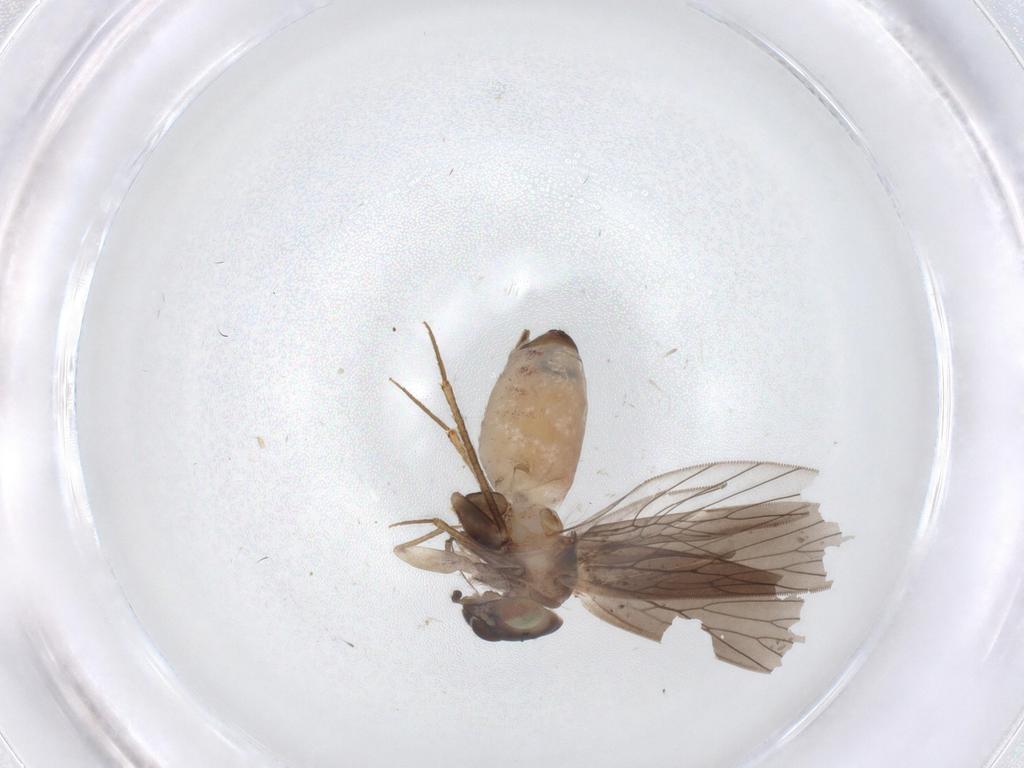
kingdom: Animalia
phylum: Arthropoda
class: Insecta
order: Psocodea
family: Lepidopsocidae
